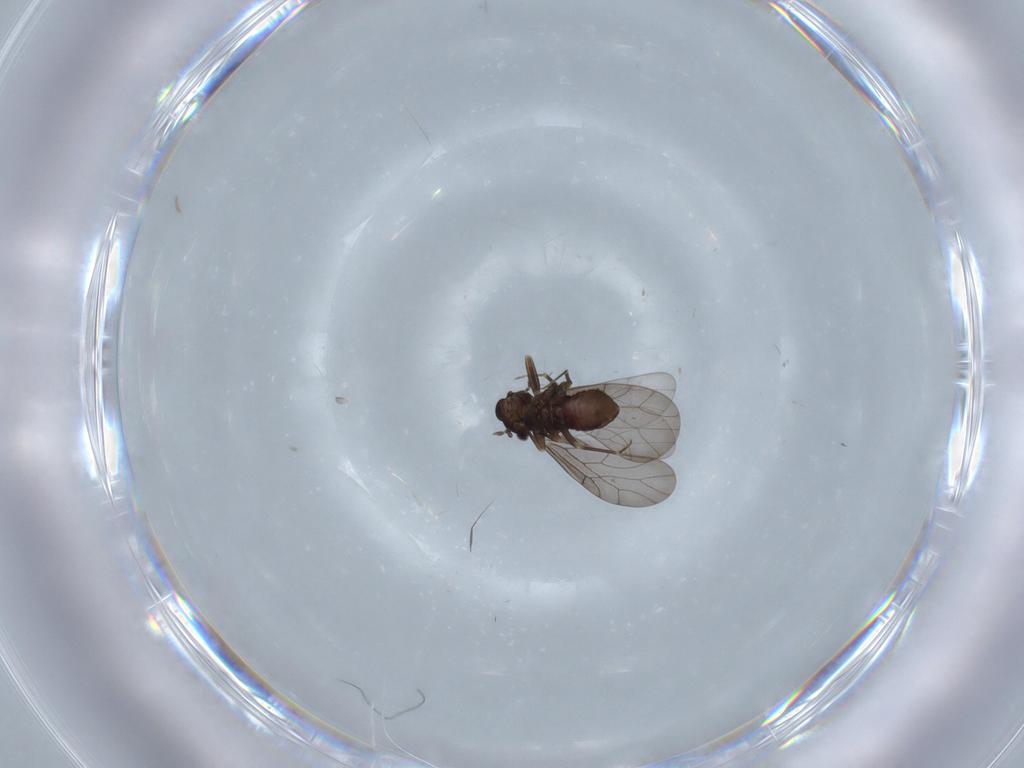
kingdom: Animalia
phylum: Arthropoda
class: Insecta
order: Psocodea
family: Lepidopsocidae
